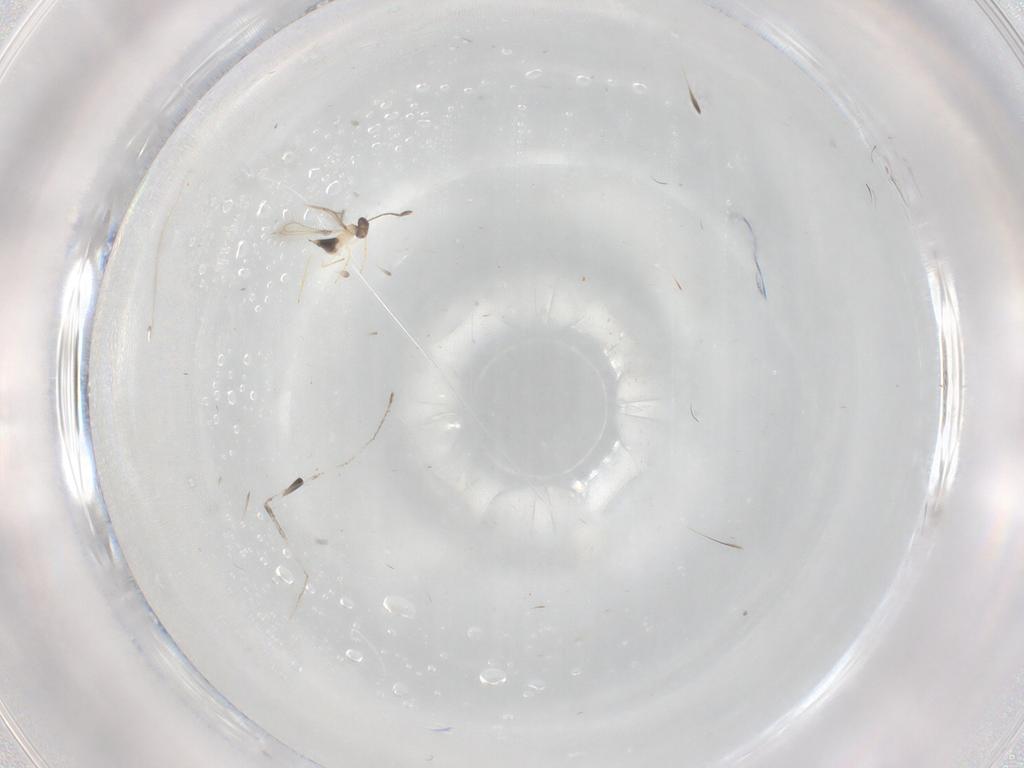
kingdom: Animalia
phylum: Arthropoda
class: Insecta
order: Hymenoptera
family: Mymaridae
